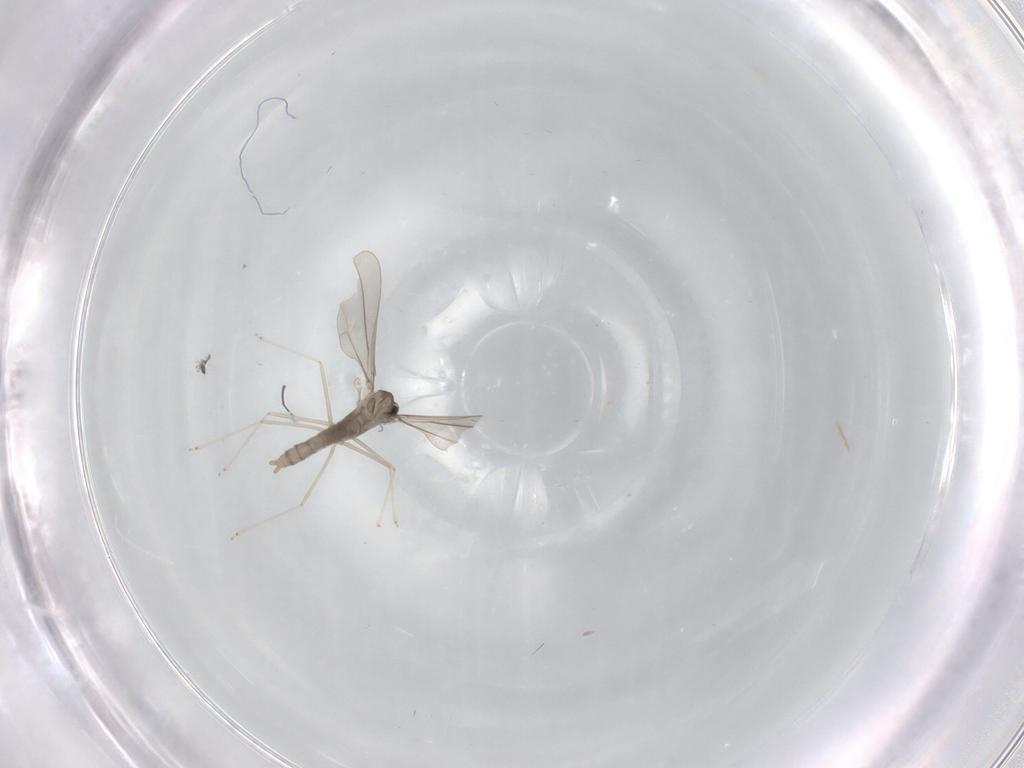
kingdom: Animalia
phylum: Arthropoda
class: Insecta
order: Diptera
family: Cecidomyiidae
